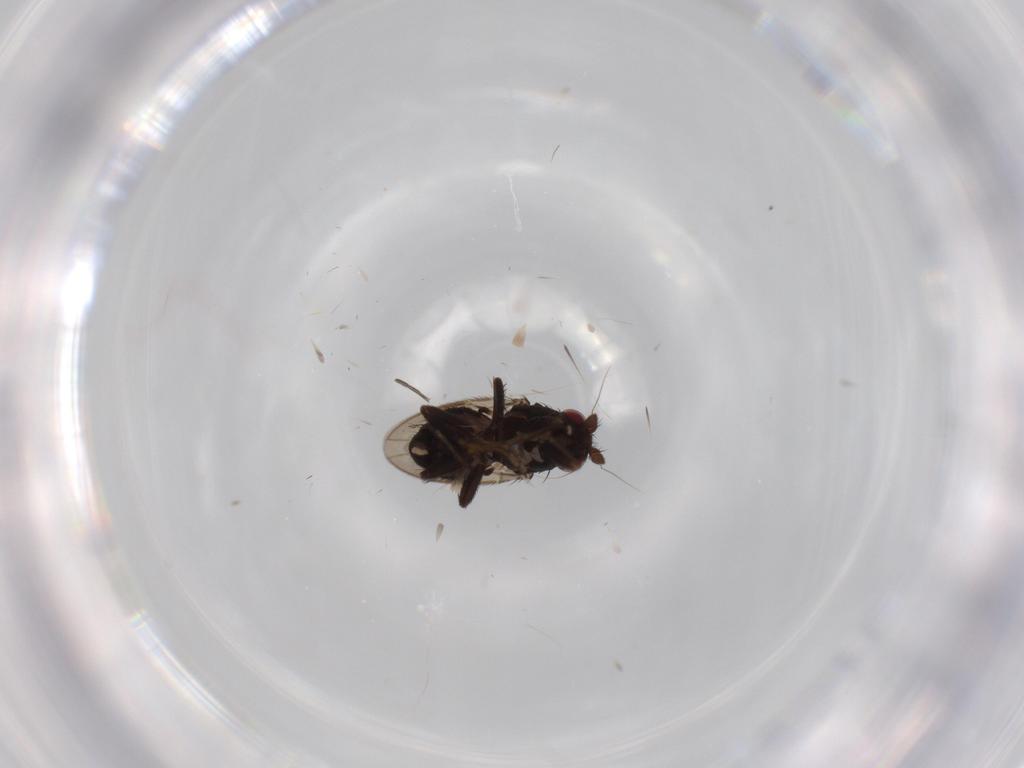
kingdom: Animalia
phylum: Arthropoda
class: Insecta
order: Diptera
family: Sphaeroceridae
